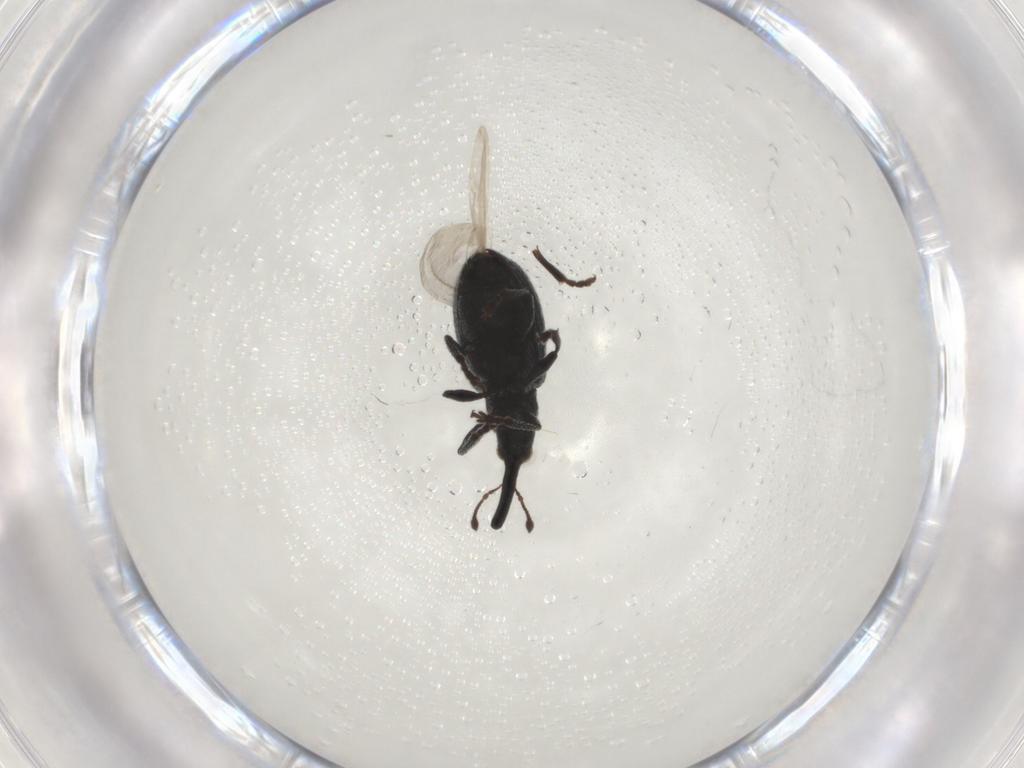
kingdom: Animalia
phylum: Arthropoda
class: Insecta
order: Coleoptera
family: Brentidae
